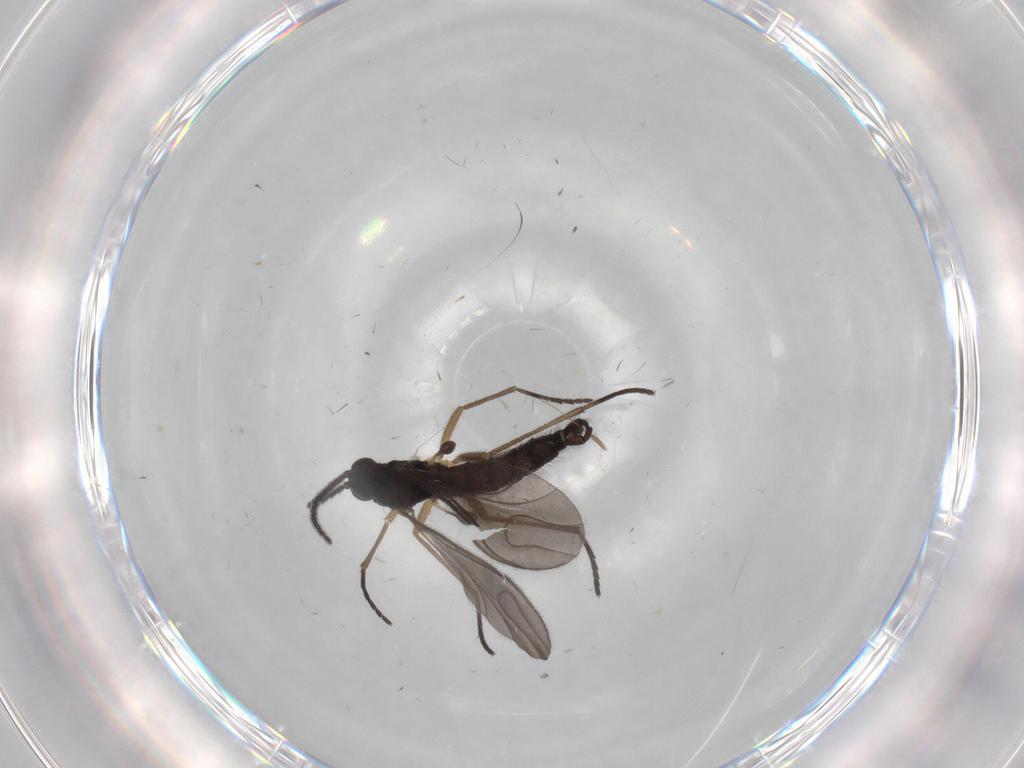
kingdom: Animalia
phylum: Arthropoda
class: Insecta
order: Diptera
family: Sciaridae
